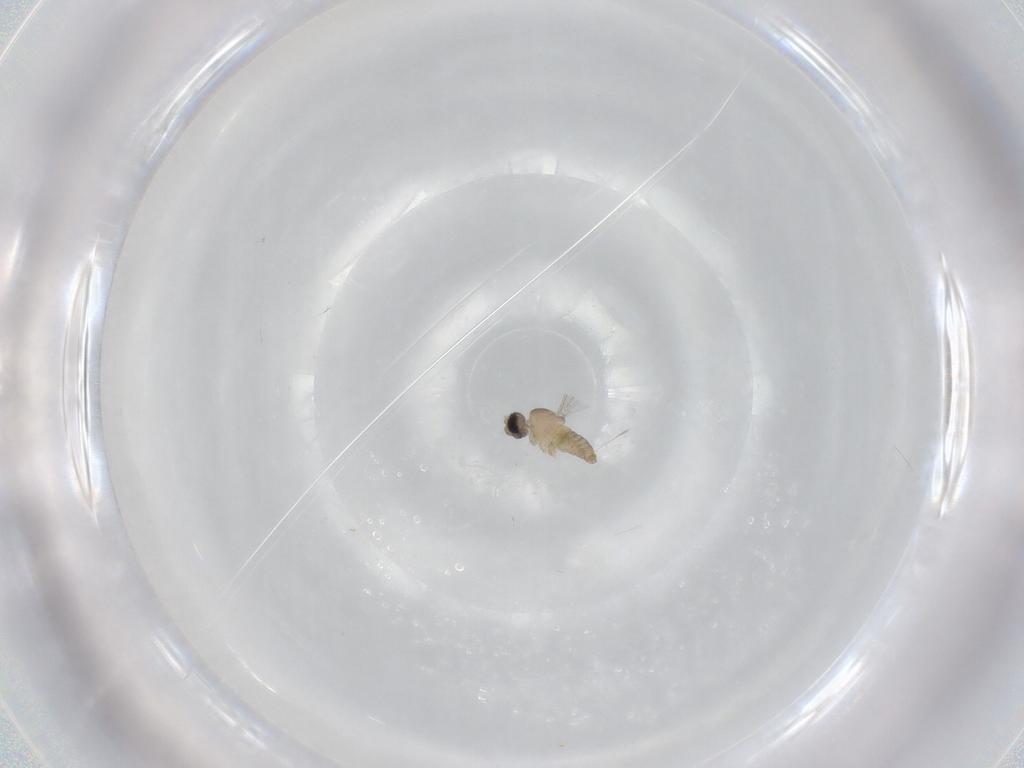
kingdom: Animalia
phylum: Arthropoda
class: Insecta
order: Diptera
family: Cecidomyiidae
